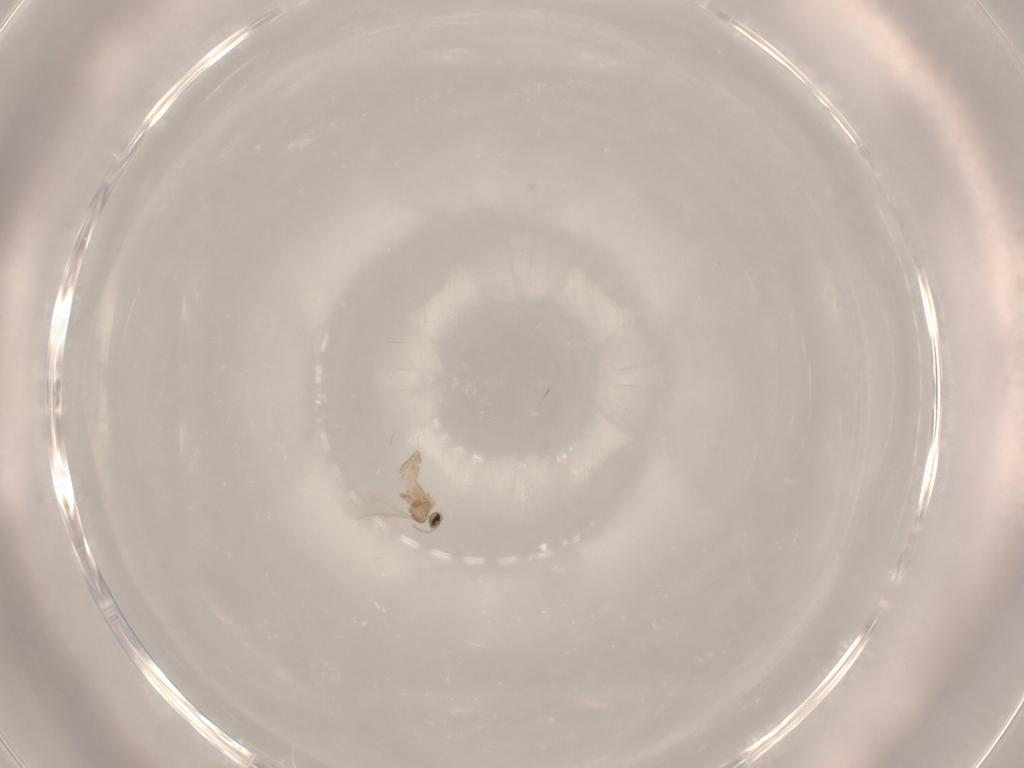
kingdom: Animalia
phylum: Arthropoda
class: Insecta
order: Diptera
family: Cecidomyiidae
